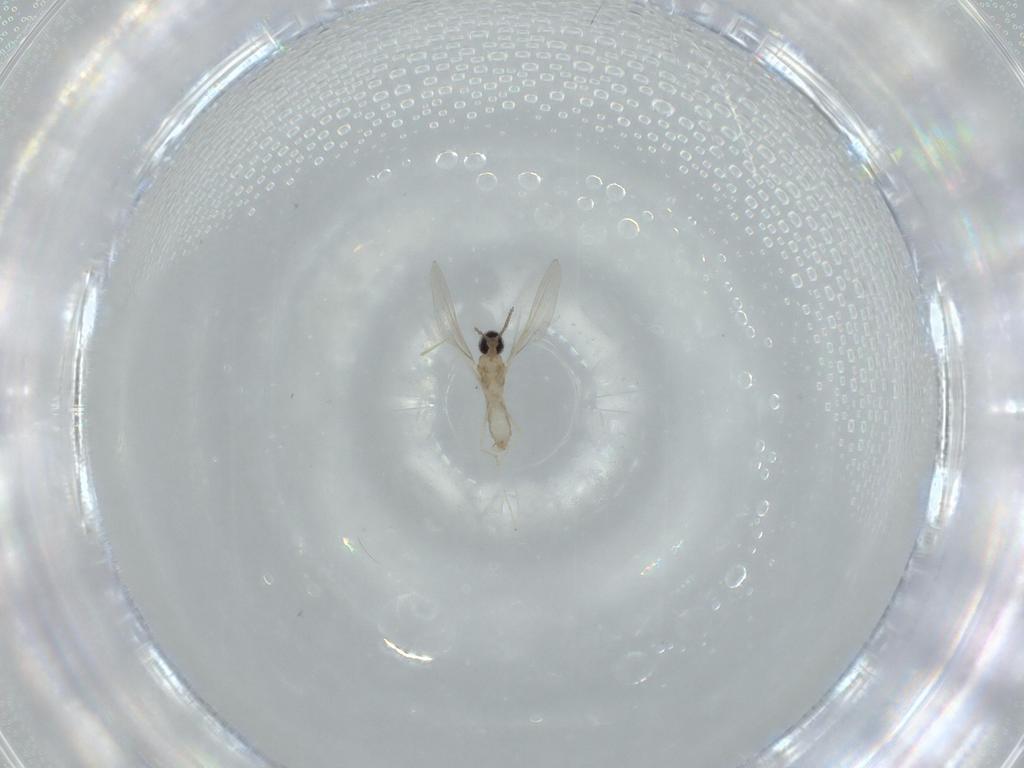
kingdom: Animalia
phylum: Arthropoda
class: Insecta
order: Diptera
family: Cecidomyiidae
